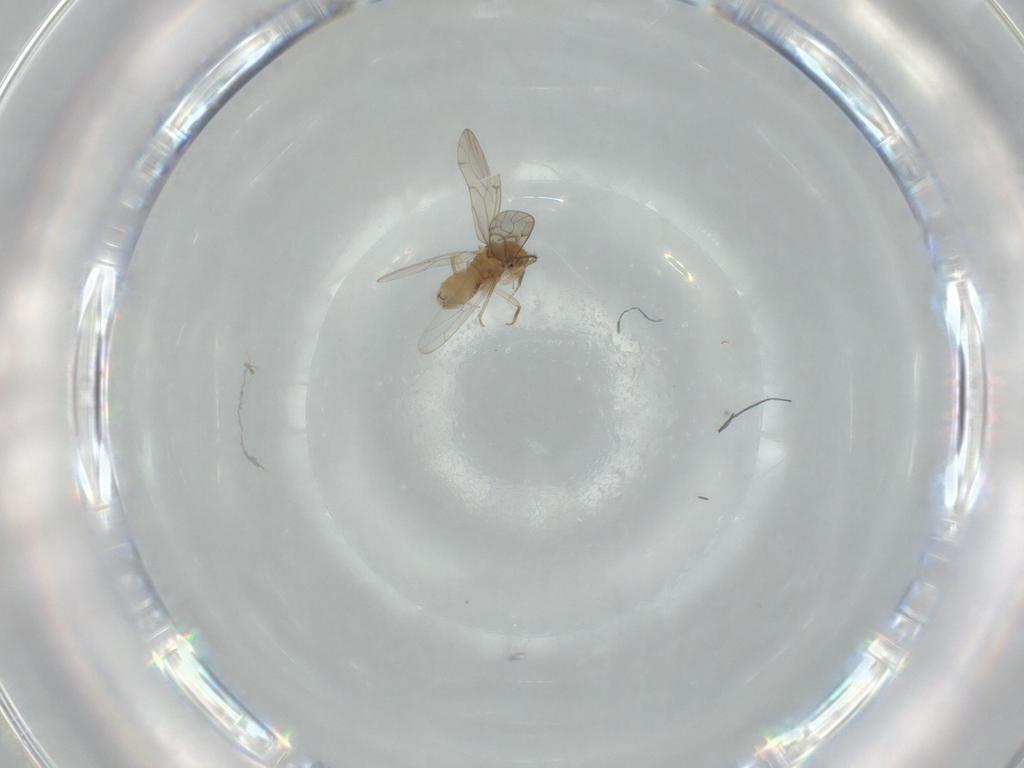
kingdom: Animalia
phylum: Arthropoda
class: Insecta
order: Psocodea
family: Ectopsocidae
